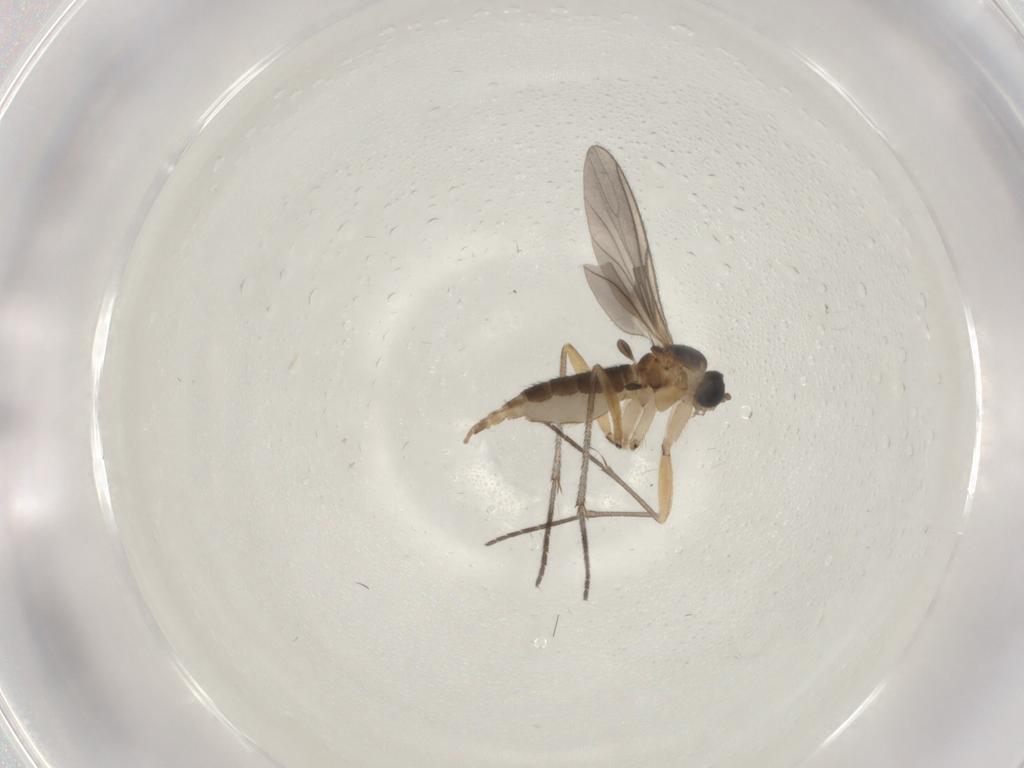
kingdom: Animalia
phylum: Arthropoda
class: Insecta
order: Diptera
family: Sciaridae
